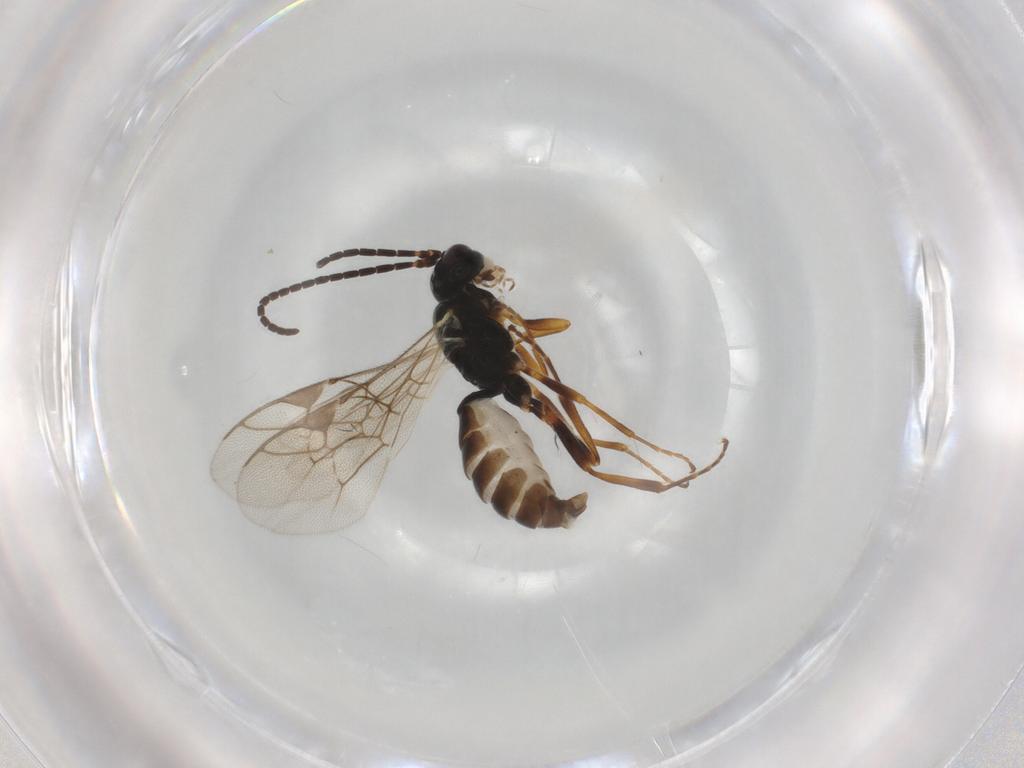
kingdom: Animalia
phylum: Arthropoda
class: Insecta
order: Hymenoptera
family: Ichneumonidae
